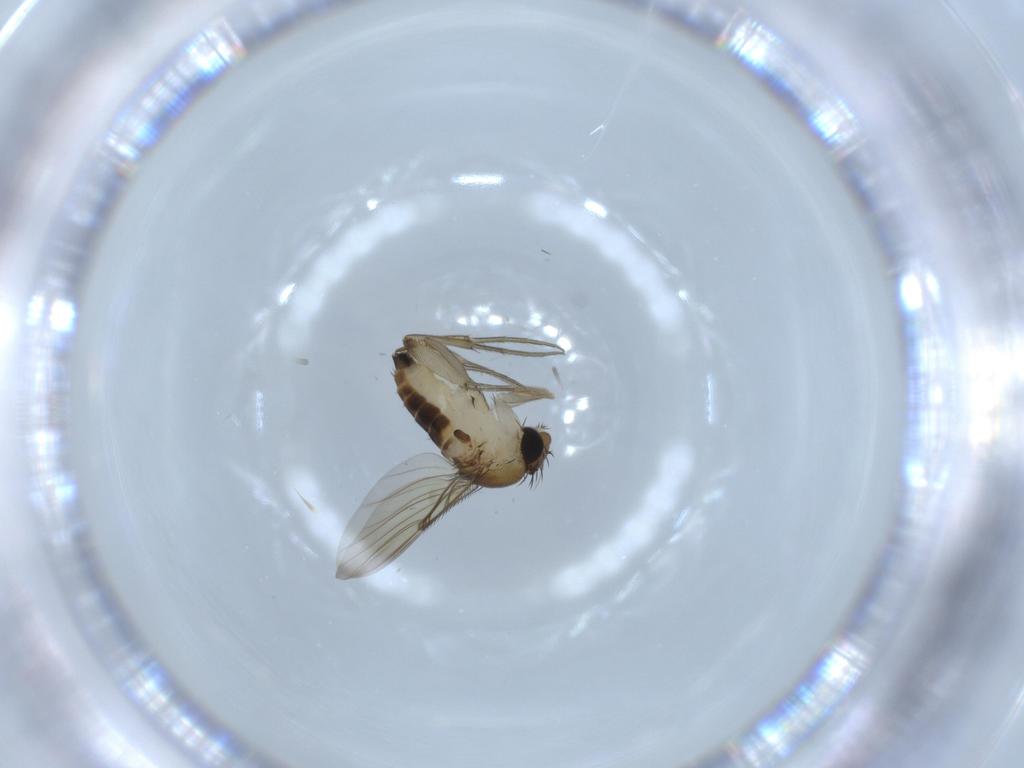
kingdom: Animalia
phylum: Arthropoda
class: Insecta
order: Diptera
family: Phoridae
